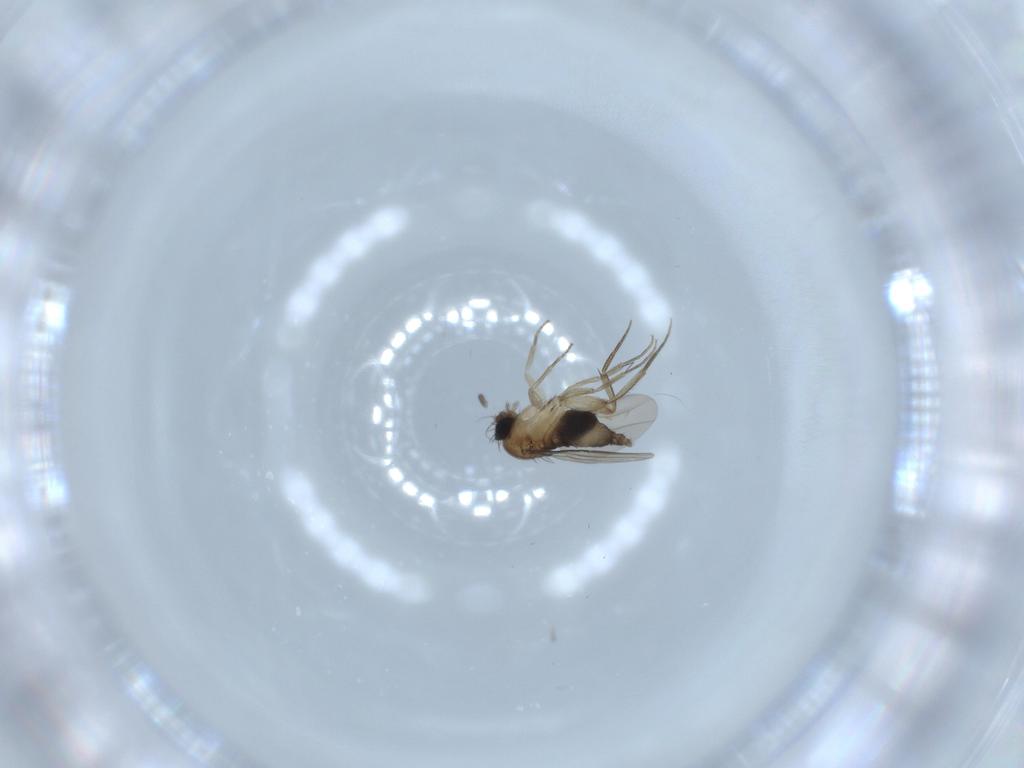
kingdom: Animalia
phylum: Arthropoda
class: Insecta
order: Diptera
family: Phoridae
